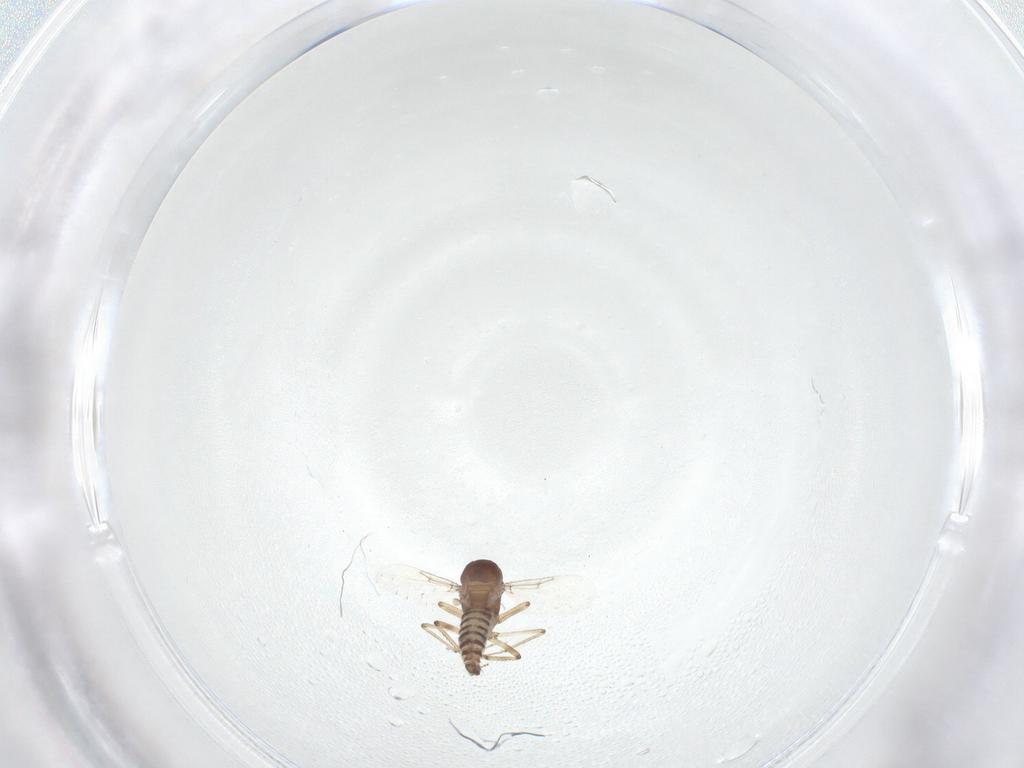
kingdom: Animalia
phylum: Arthropoda
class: Insecta
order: Diptera
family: Ceratopogonidae
